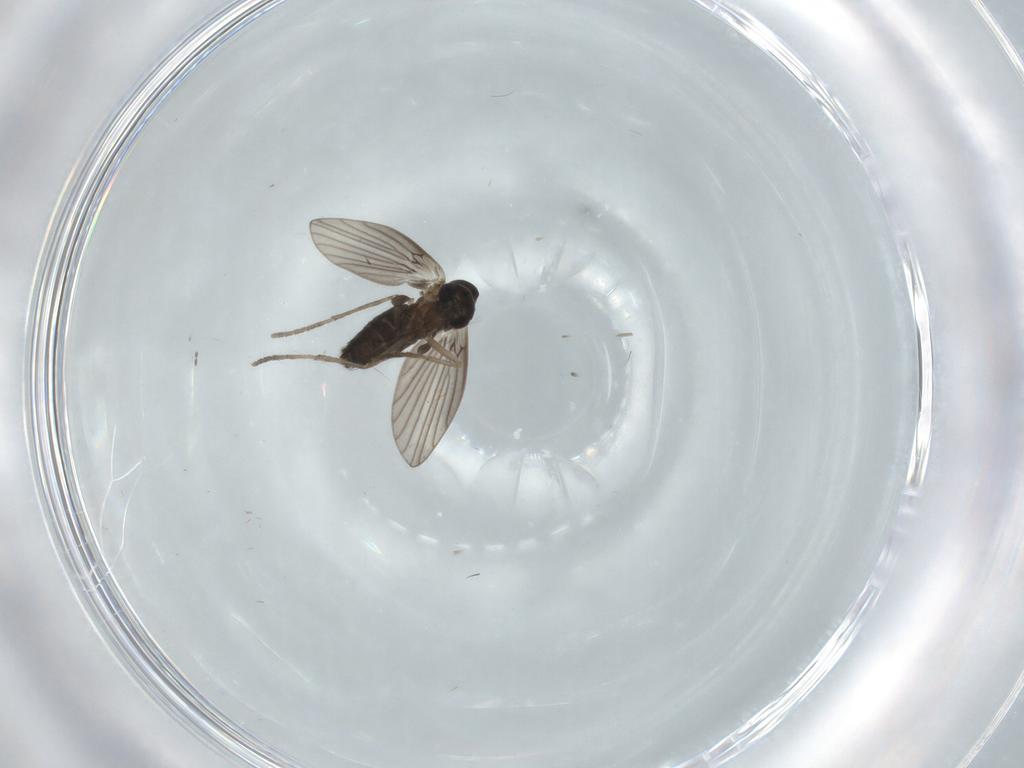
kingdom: Animalia
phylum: Arthropoda
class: Insecta
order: Diptera
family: Cecidomyiidae
